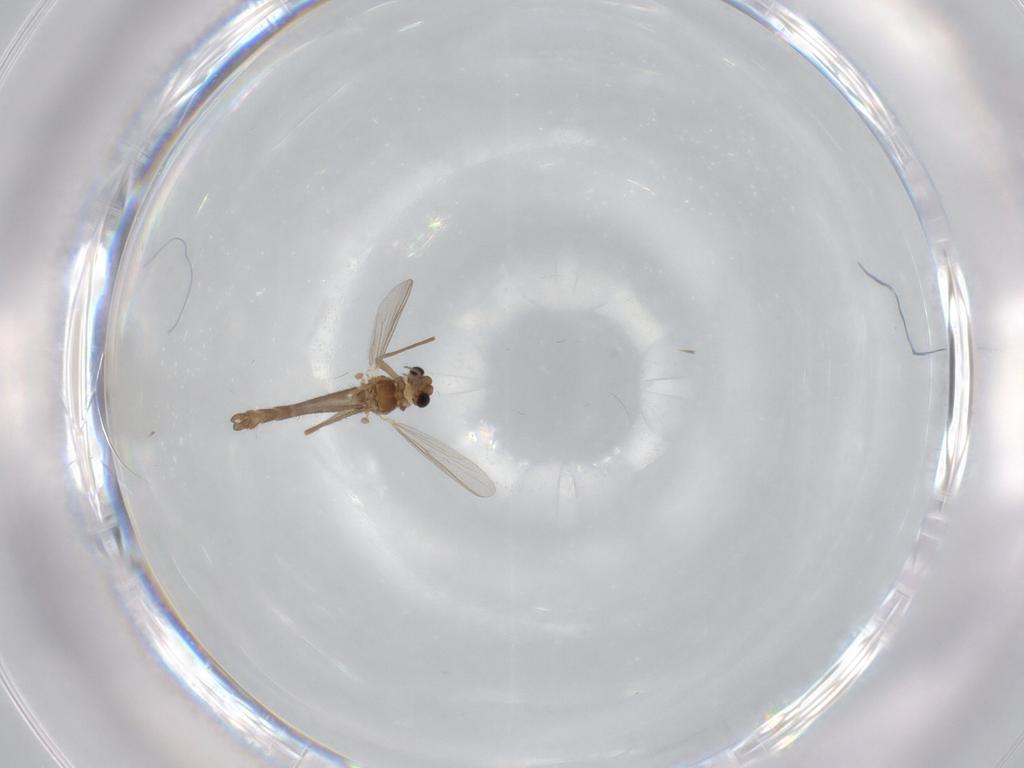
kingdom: Animalia
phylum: Arthropoda
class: Insecta
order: Diptera
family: Chironomidae
